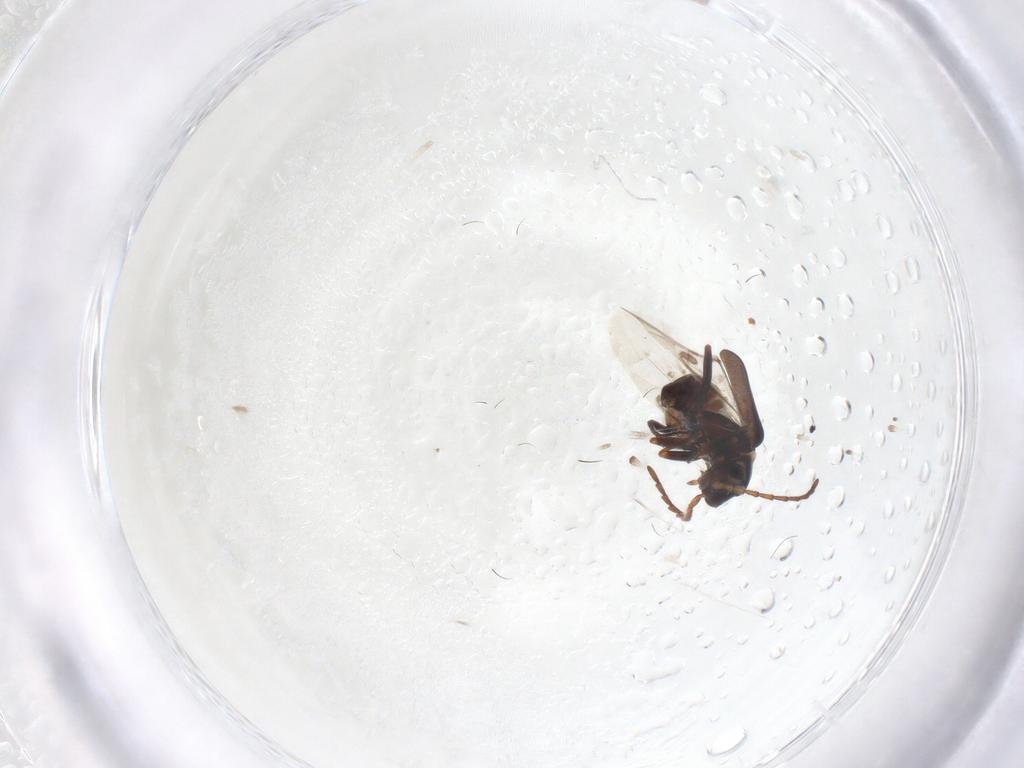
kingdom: Animalia
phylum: Arthropoda
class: Insecta
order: Coleoptera
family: Melyridae
